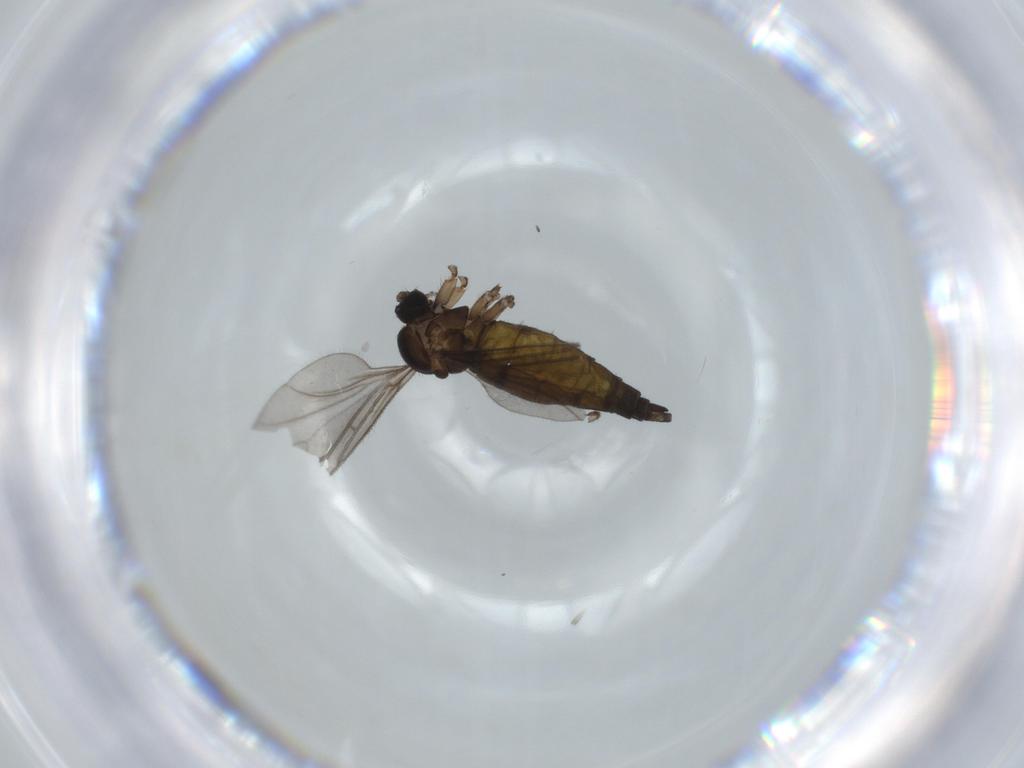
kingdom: Animalia
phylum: Arthropoda
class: Insecta
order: Diptera
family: Sciaridae
